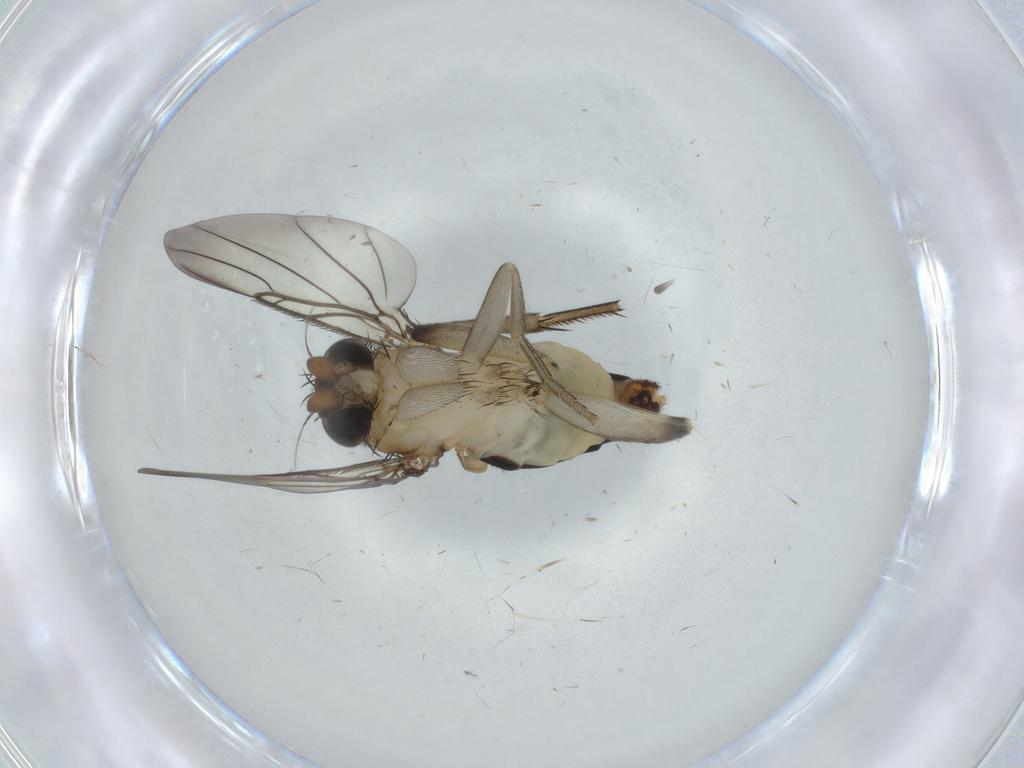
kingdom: Animalia
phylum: Arthropoda
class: Insecta
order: Diptera
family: Phoridae
